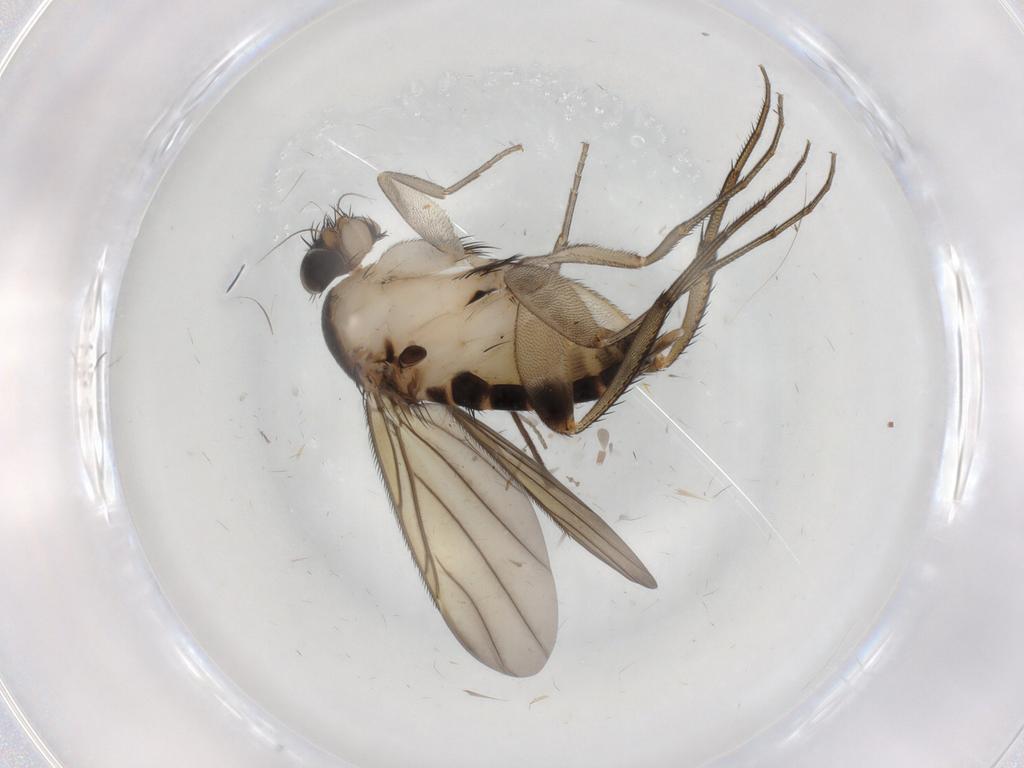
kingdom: Animalia
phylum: Arthropoda
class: Insecta
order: Diptera
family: Phoridae
